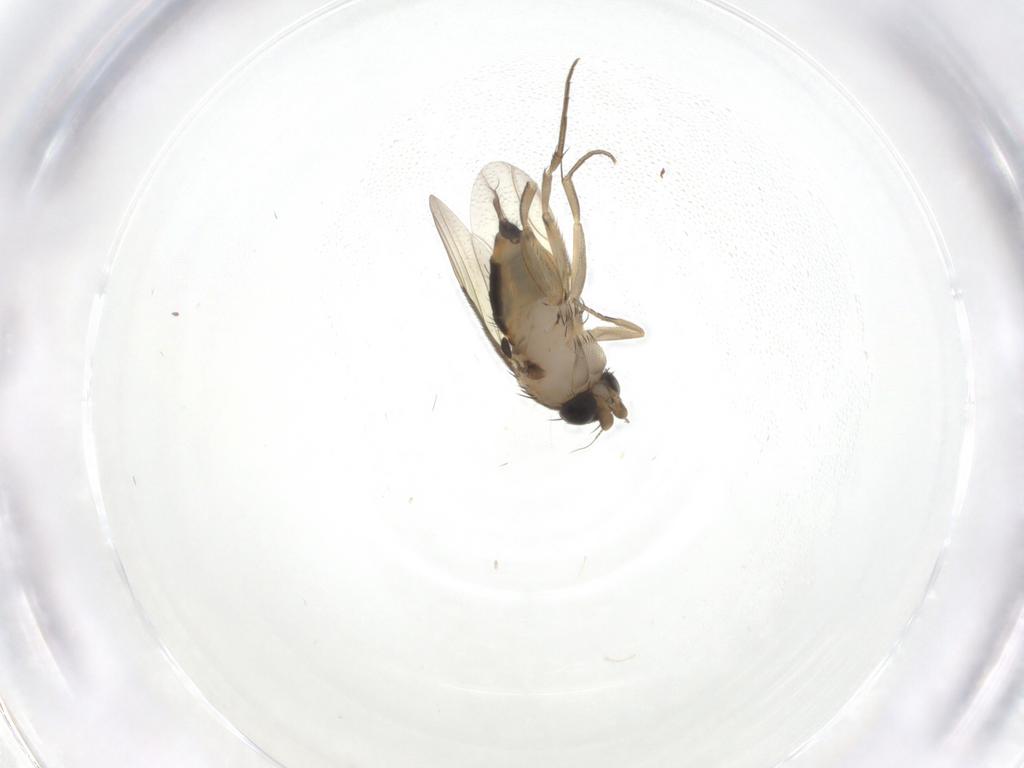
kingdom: Animalia
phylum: Arthropoda
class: Insecta
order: Diptera
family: Phoridae
